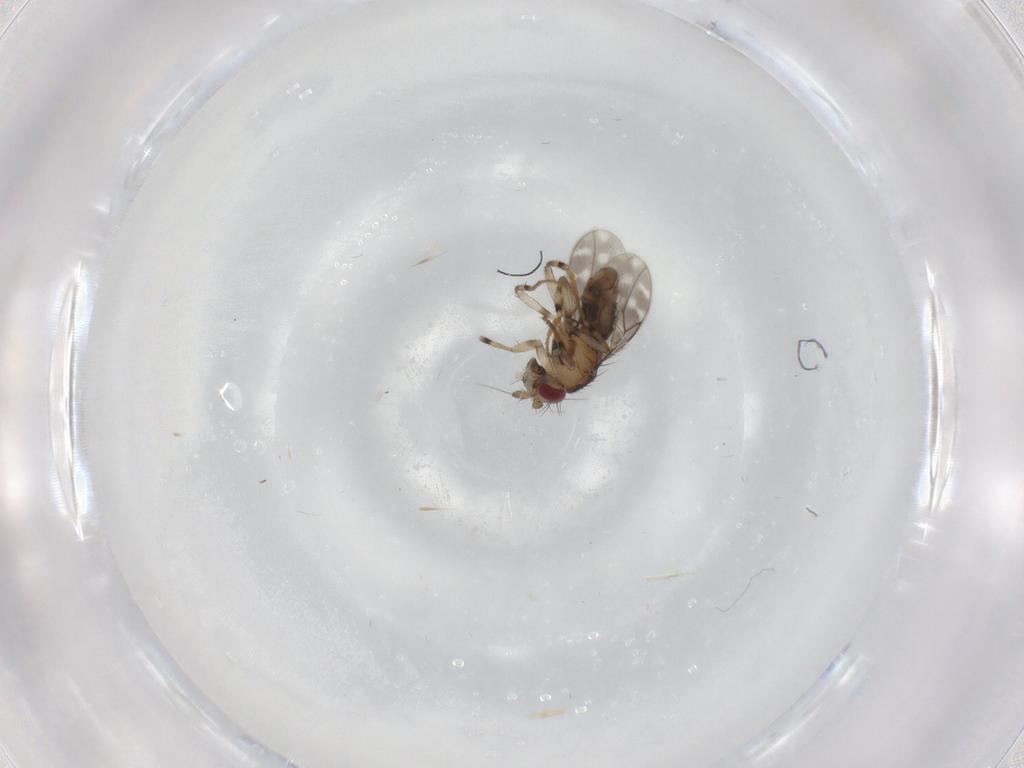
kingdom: Animalia
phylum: Arthropoda
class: Insecta
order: Diptera
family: Sphaeroceridae
